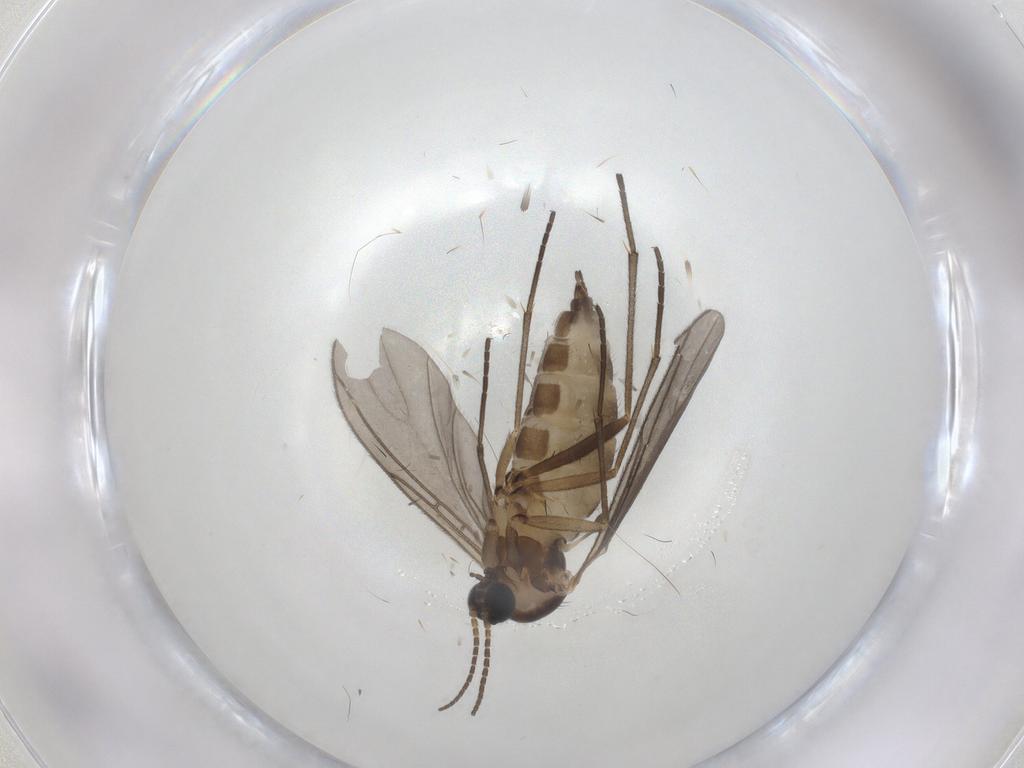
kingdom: Animalia
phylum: Arthropoda
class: Insecta
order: Diptera
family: Sciaridae
